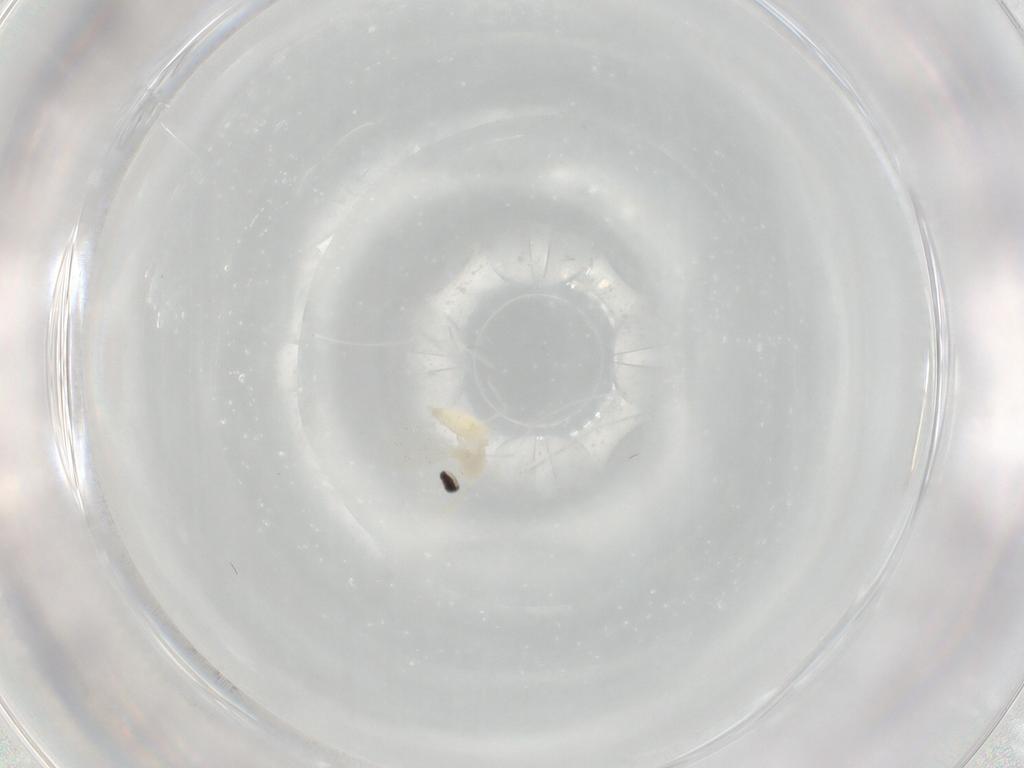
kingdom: Animalia
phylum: Arthropoda
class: Insecta
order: Diptera
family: Cecidomyiidae
